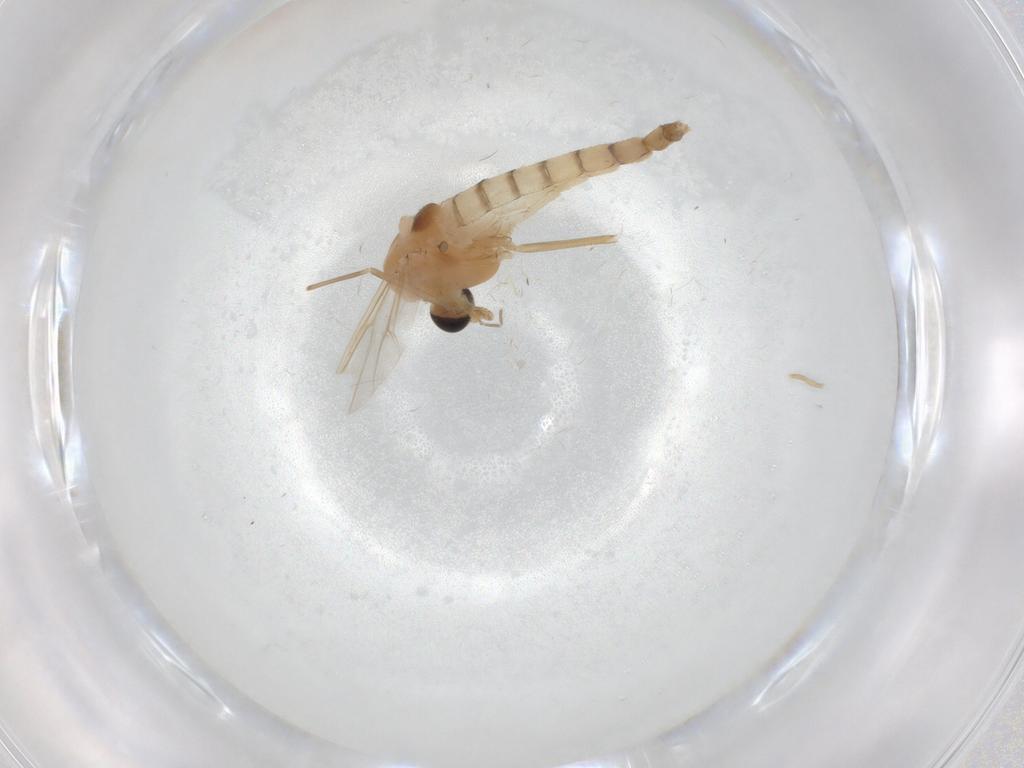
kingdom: Animalia
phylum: Arthropoda
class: Insecta
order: Diptera
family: Chironomidae
